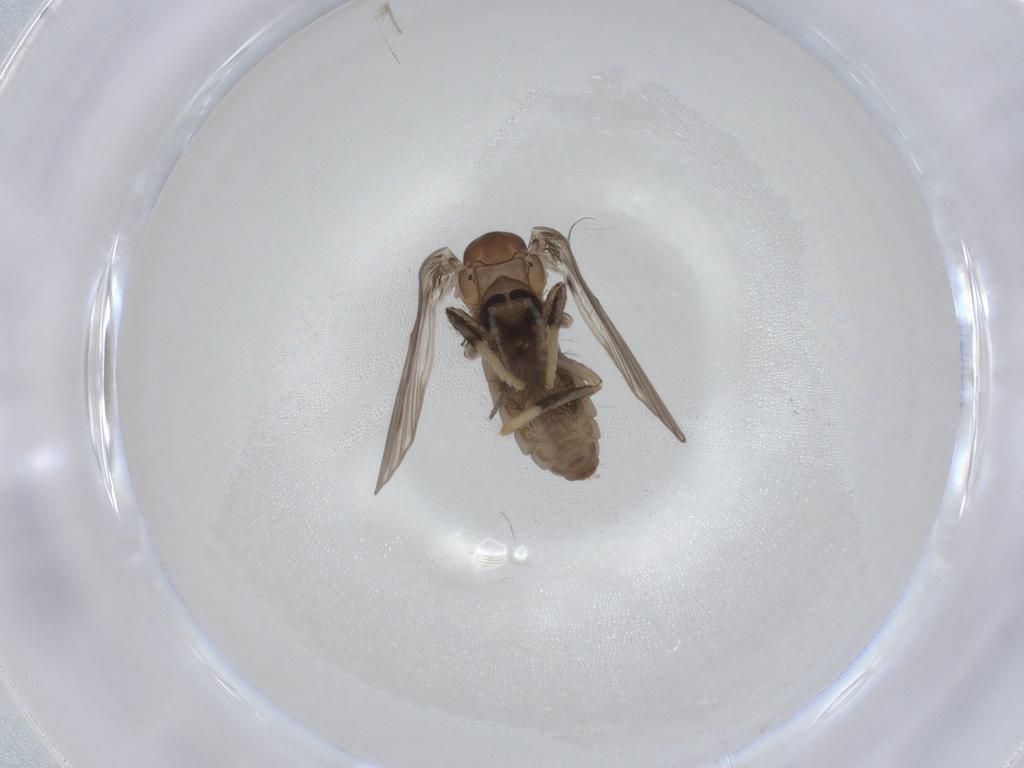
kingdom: Animalia
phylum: Arthropoda
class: Insecta
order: Diptera
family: Psychodidae
